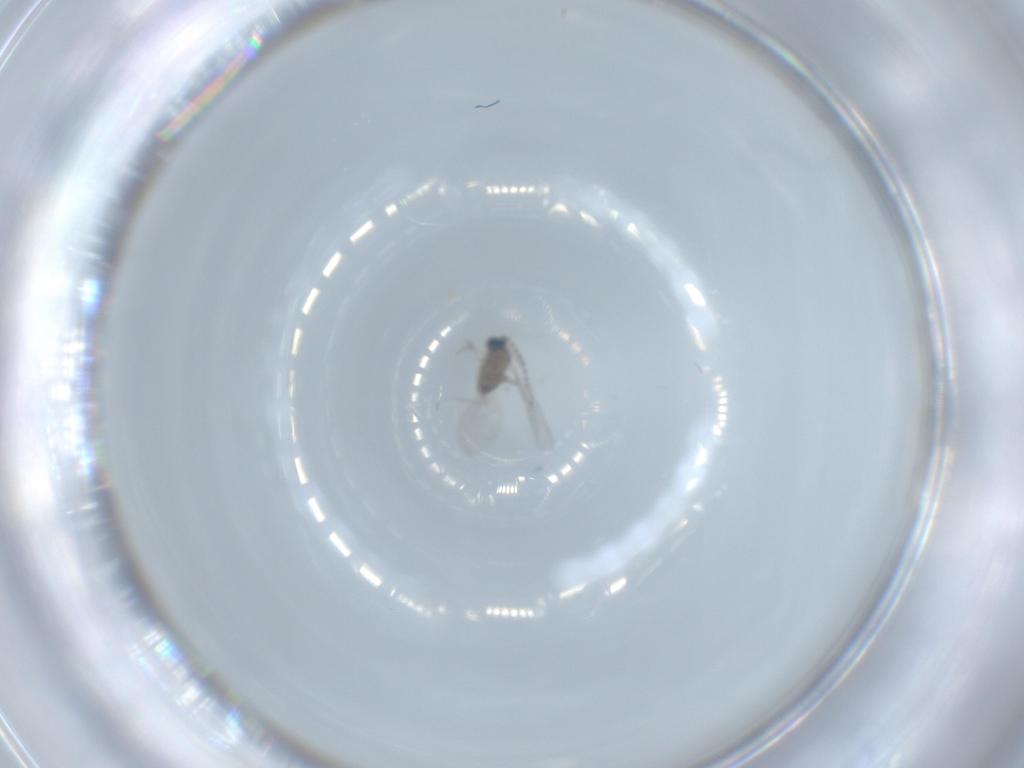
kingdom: Animalia
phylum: Arthropoda
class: Insecta
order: Diptera
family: Cecidomyiidae
